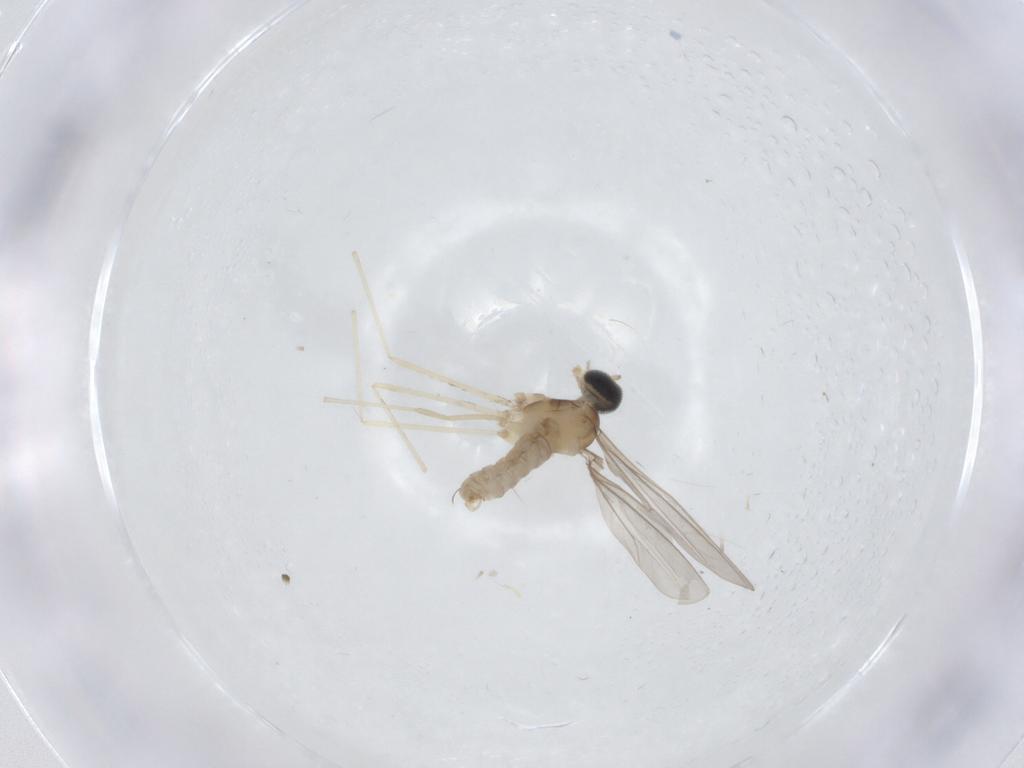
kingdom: Animalia
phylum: Arthropoda
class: Insecta
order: Diptera
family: Cecidomyiidae
